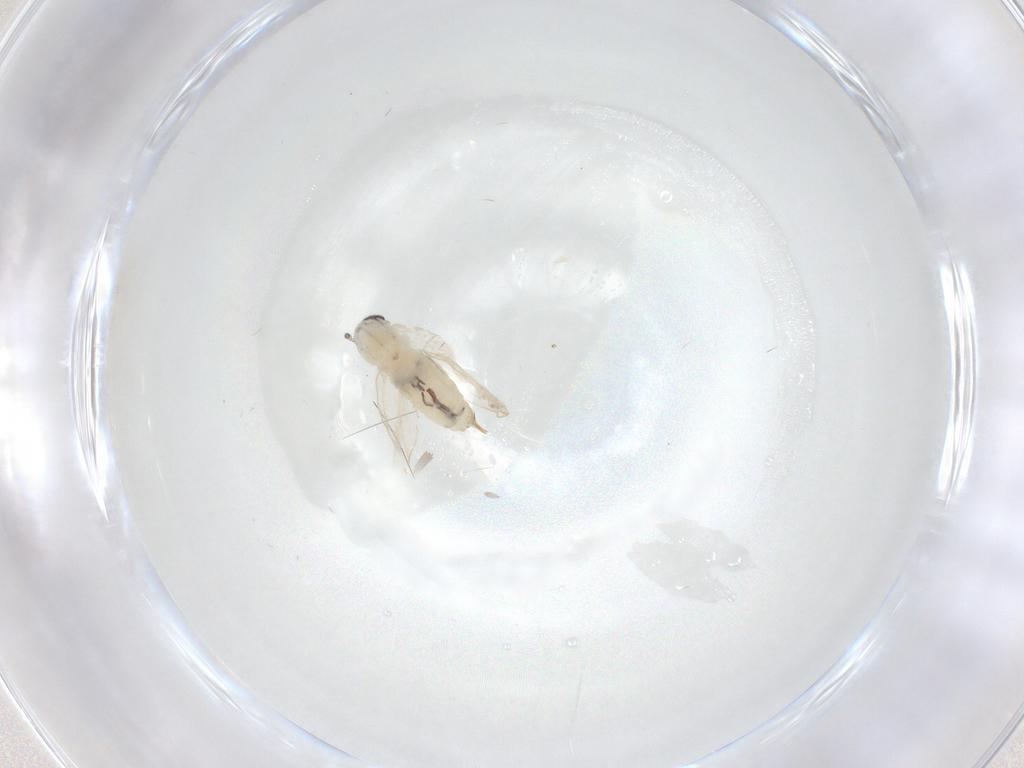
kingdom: Animalia
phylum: Arthropoda
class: Insecta
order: Diptera
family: Psychodidae
